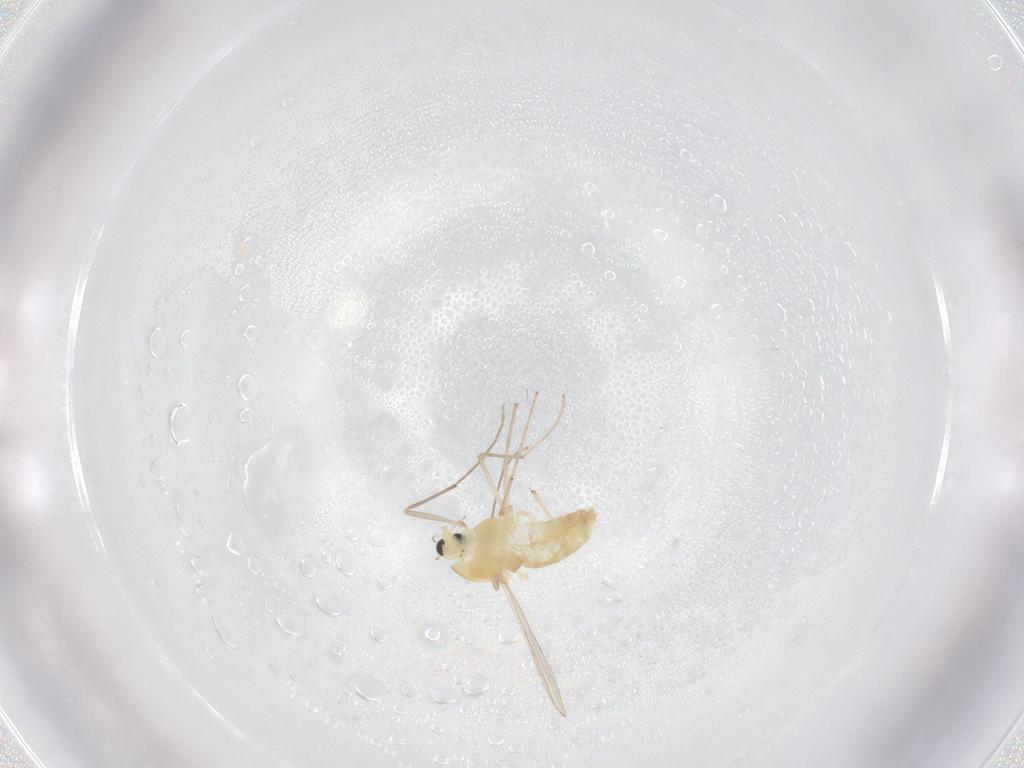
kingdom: Animalia
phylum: Arthropoda
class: Insecta
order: Diptera
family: Chironomidae
